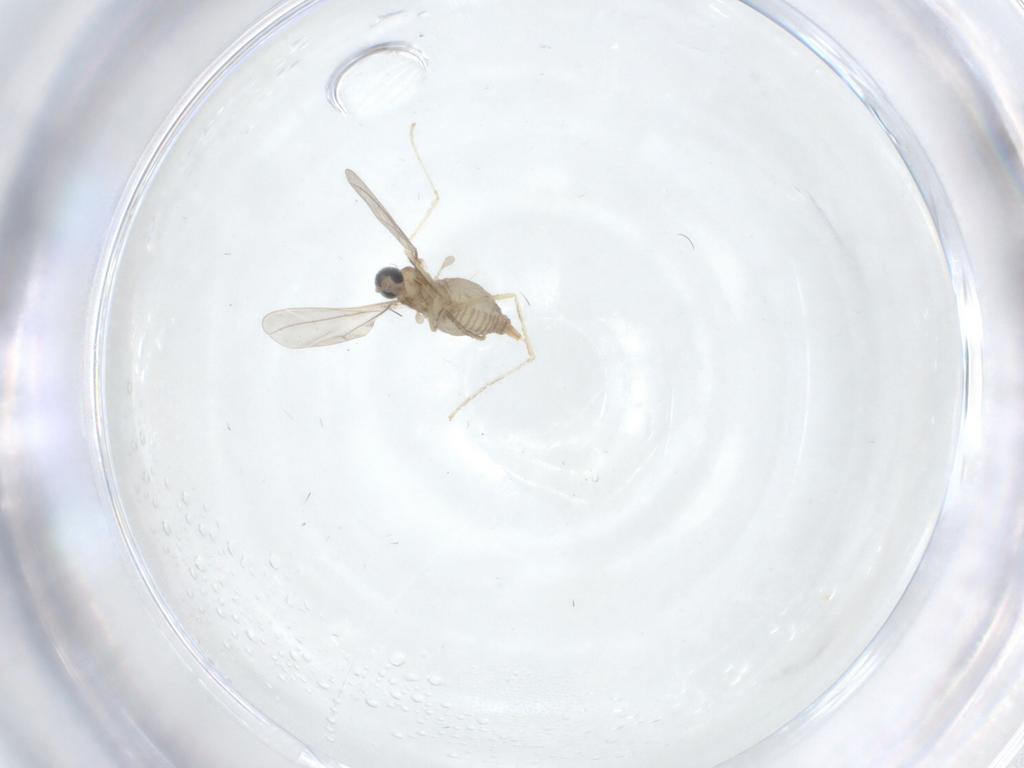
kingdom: Animalia
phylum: Arthropoda
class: Insecta
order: Diptera
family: Cecidomyiidae
